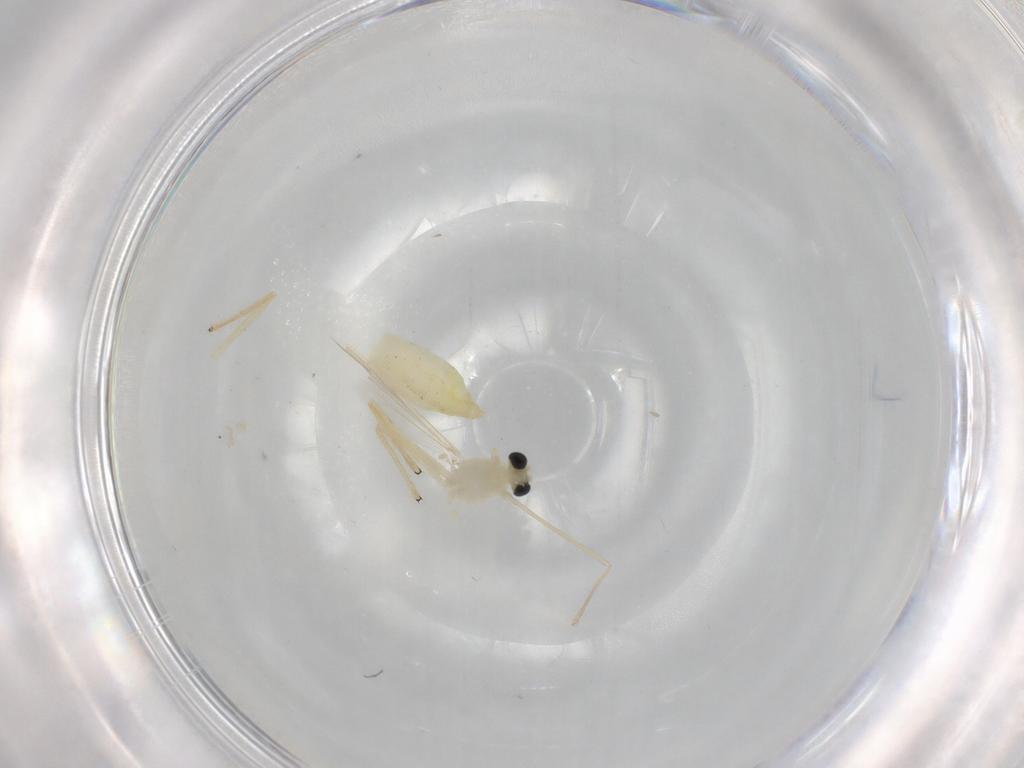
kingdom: Animalia
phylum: Arthropoda
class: Insecta
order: Diptera
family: Chironomidae
